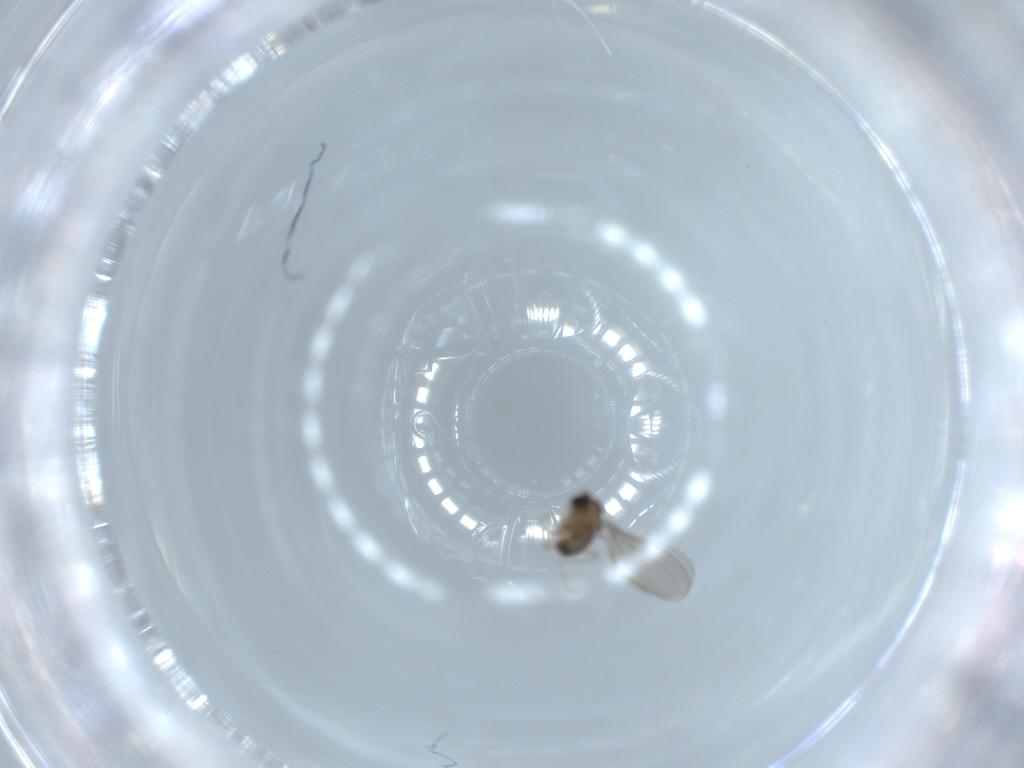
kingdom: Animalia
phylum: Arthropoda
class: Insecta
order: Diptera
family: Cecidomyiidae
